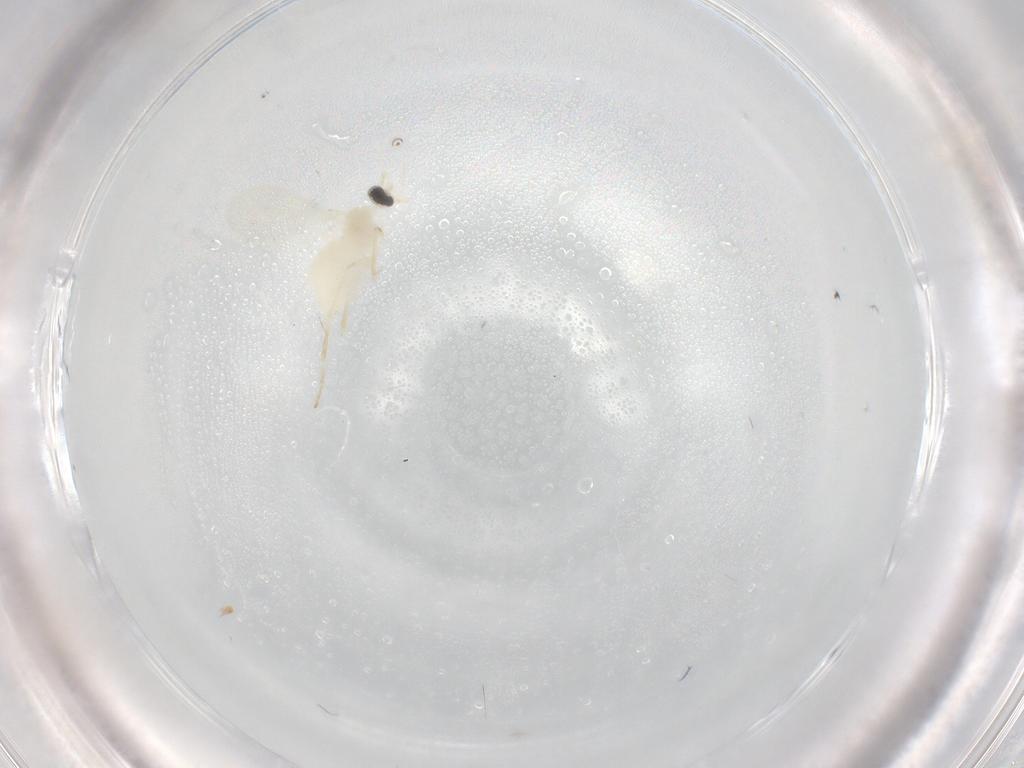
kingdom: Animalia
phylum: Arthropoda
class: Insecta
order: Diptera
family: Cecidomyiidae
